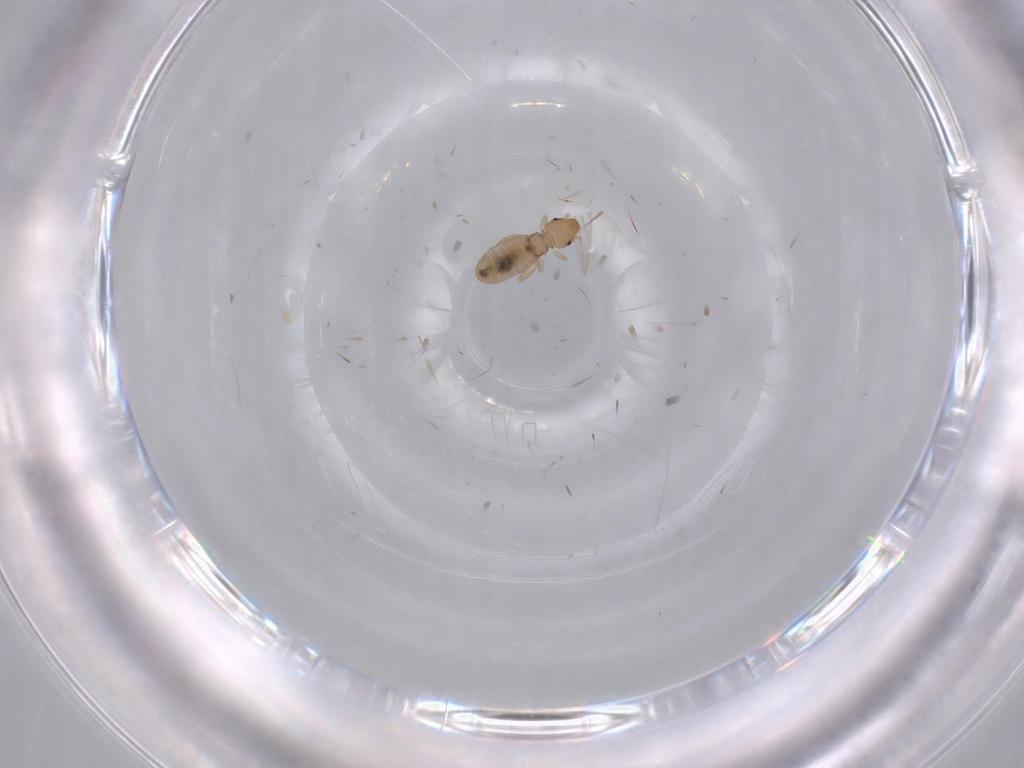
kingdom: Animalia
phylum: Arthropoda
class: Insecta
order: Psocodea
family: Liposcelididae
